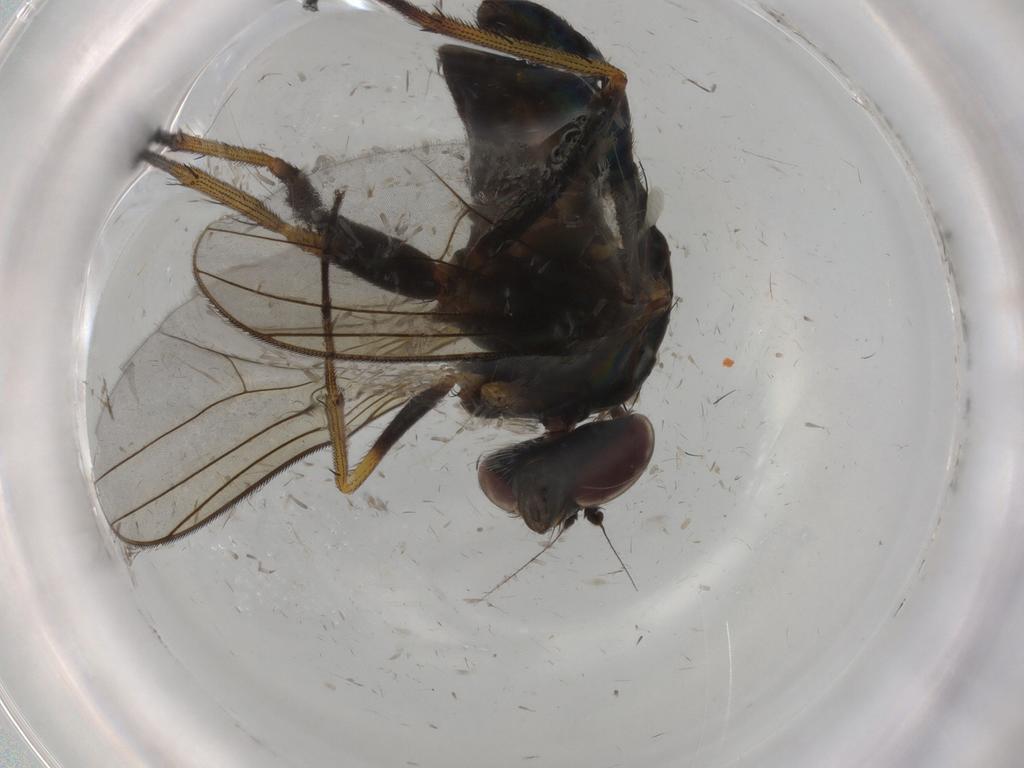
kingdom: Animalia
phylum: Arthropoda
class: Insecta
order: Diptera
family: Dolichopodidae
